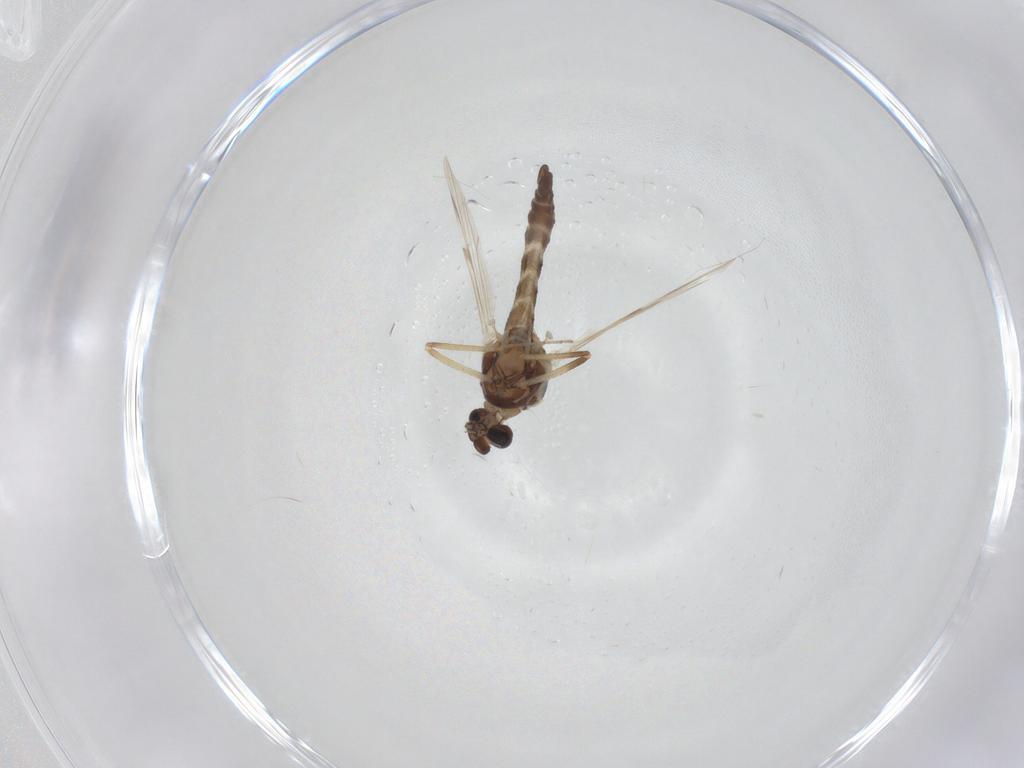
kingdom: Animalia
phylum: Arthropoda
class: Insecta
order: Diptera
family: Ceratopogonidae
